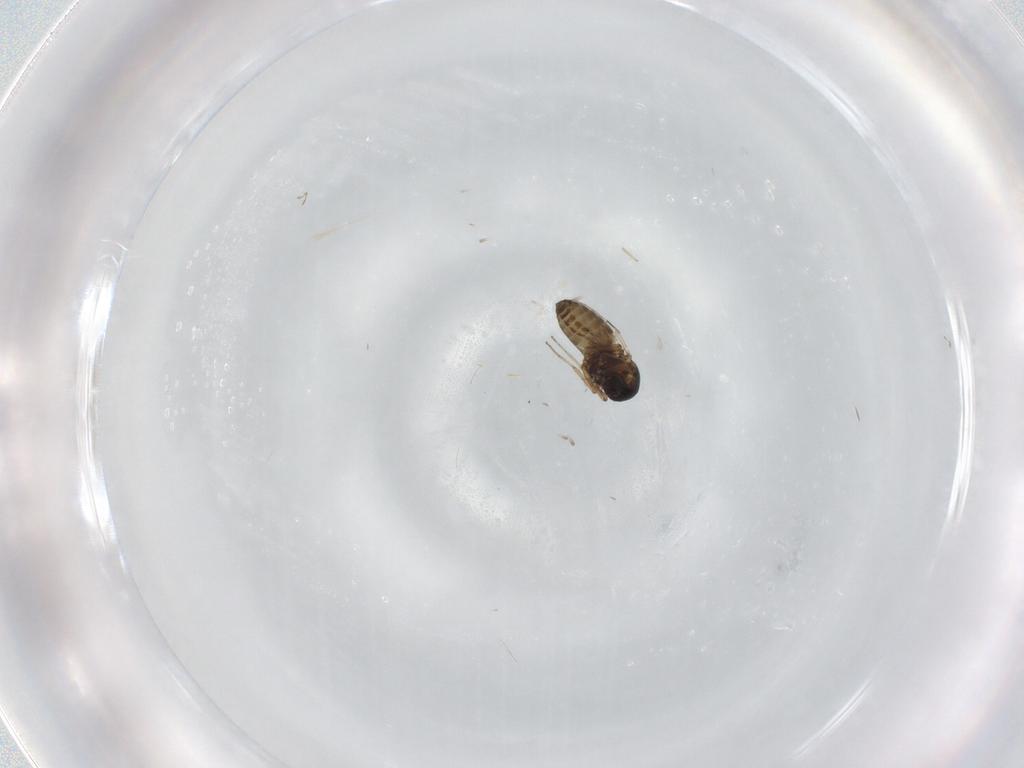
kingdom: Animalia
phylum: Arthropoda
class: Insecta
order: Diptera
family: Ceratopogonidae
